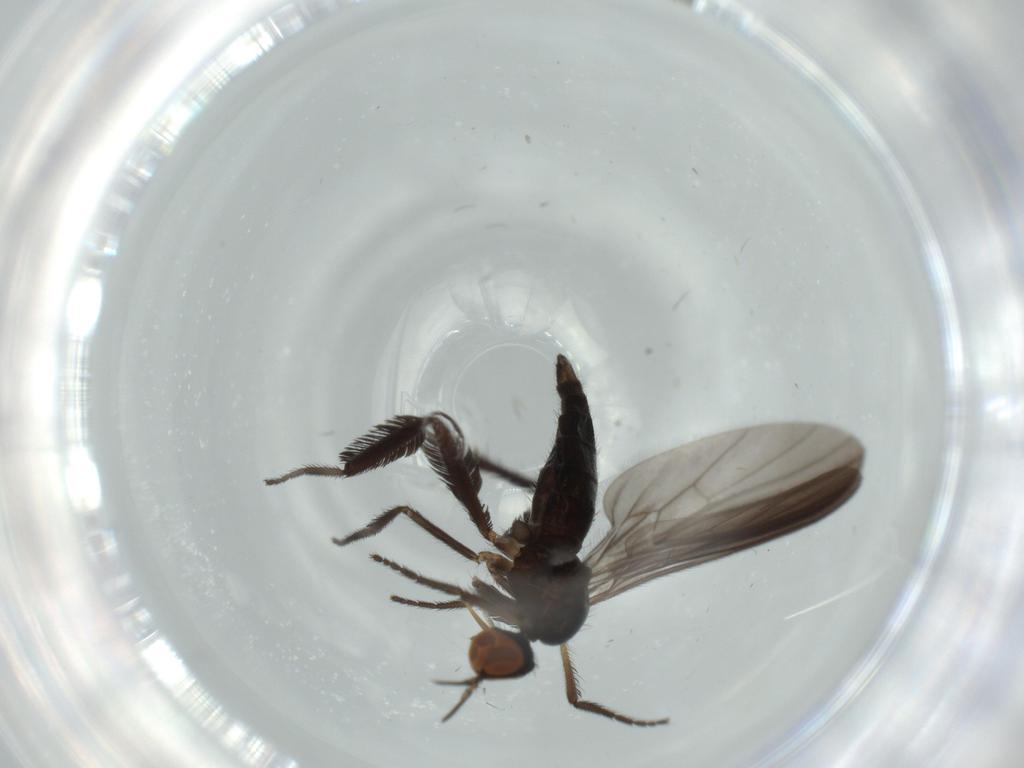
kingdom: Animalia
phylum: Arthropoda
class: Insecta
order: Diptera
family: Empididae
